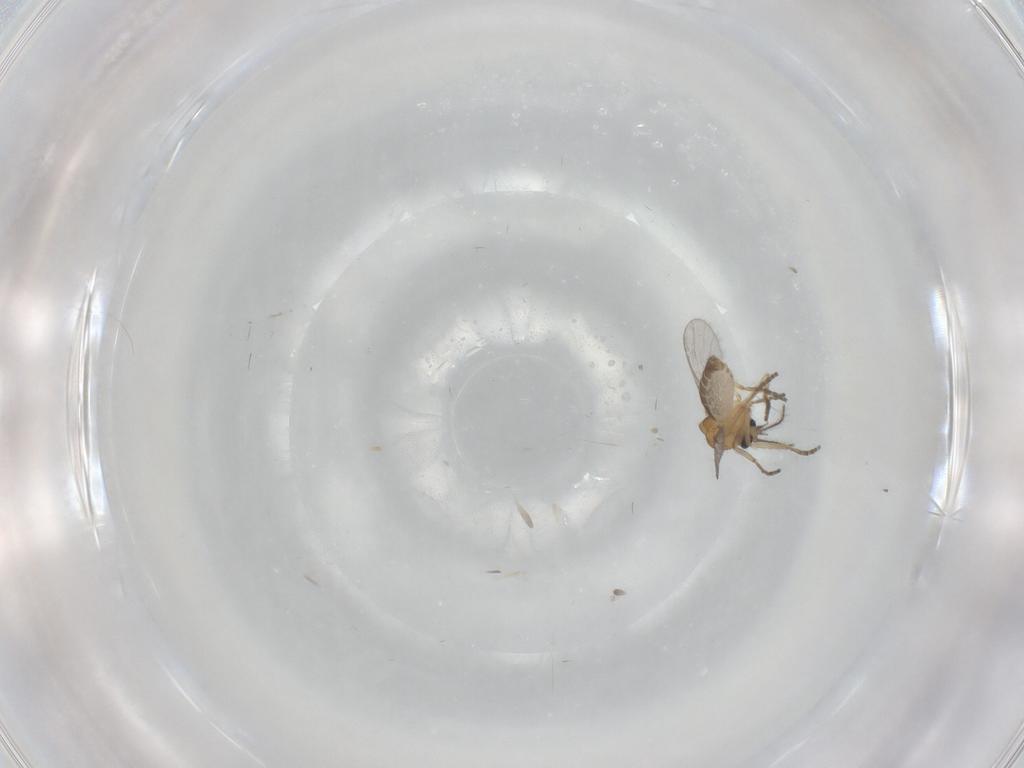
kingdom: Animalia
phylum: Arthropoda
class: Insecta
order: Diptera
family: Ceratopogonidae
